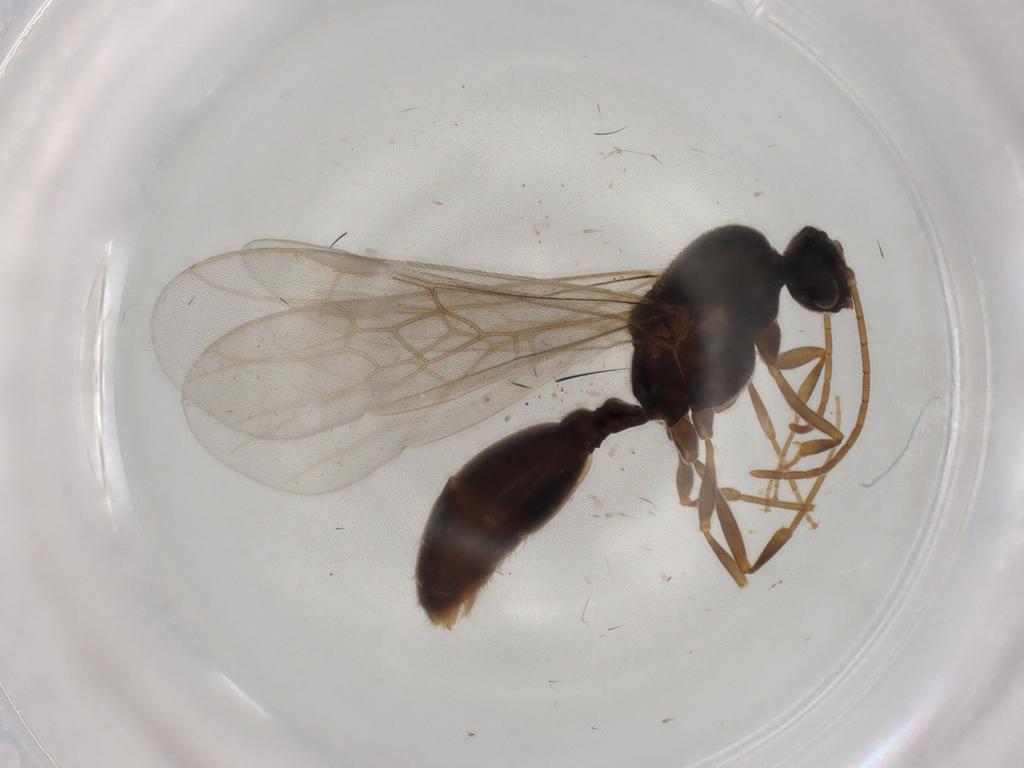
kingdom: Animalia
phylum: Arthropoda
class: Insecta
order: Hymenoptera
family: Formicidae
